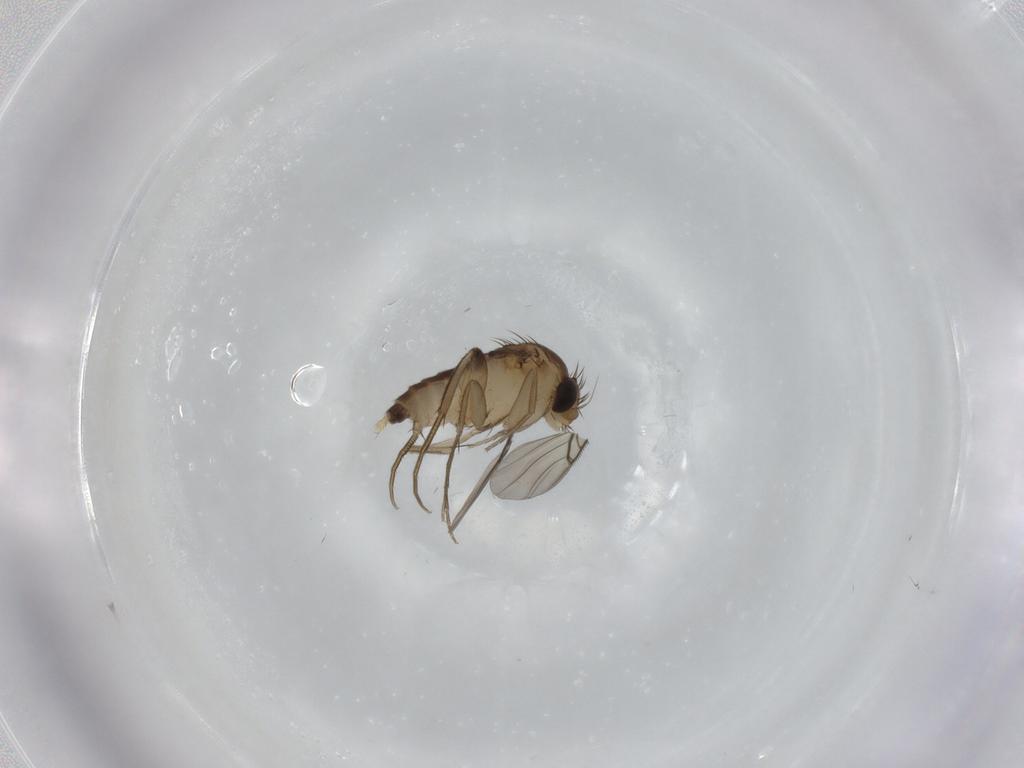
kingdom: Animalia
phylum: Arthropoda
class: Insecta
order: Diptera
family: Phoridae
